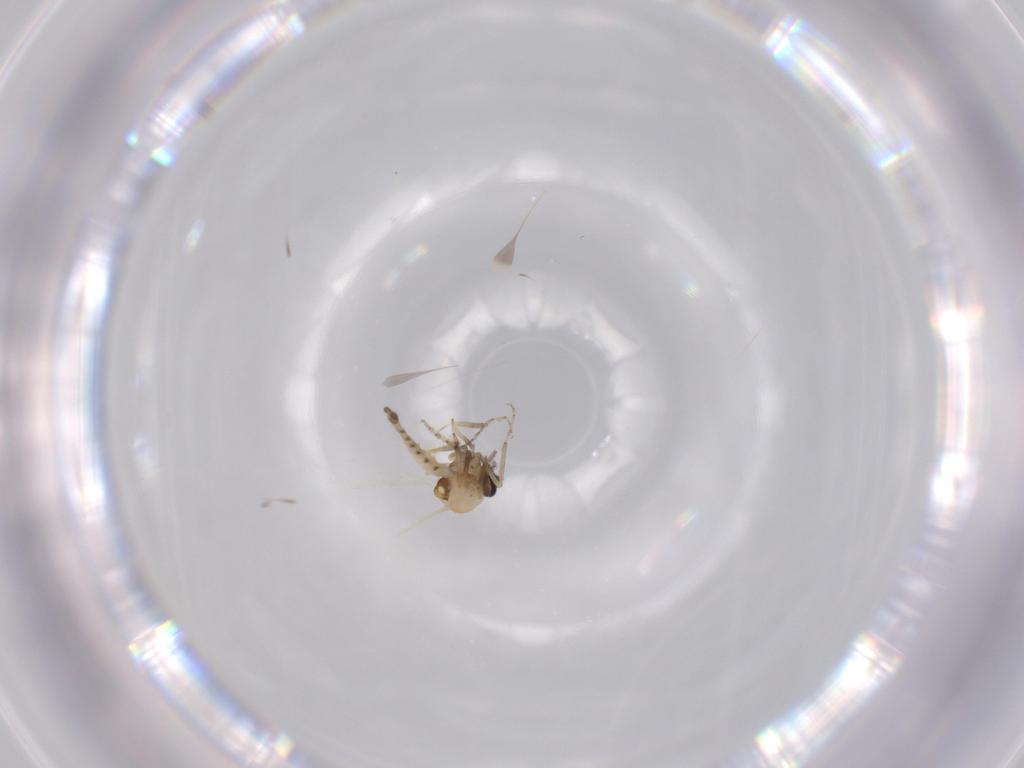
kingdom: Animalia
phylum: Arthropoda
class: Insecta
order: Diptera
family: Ceratopogonidae
